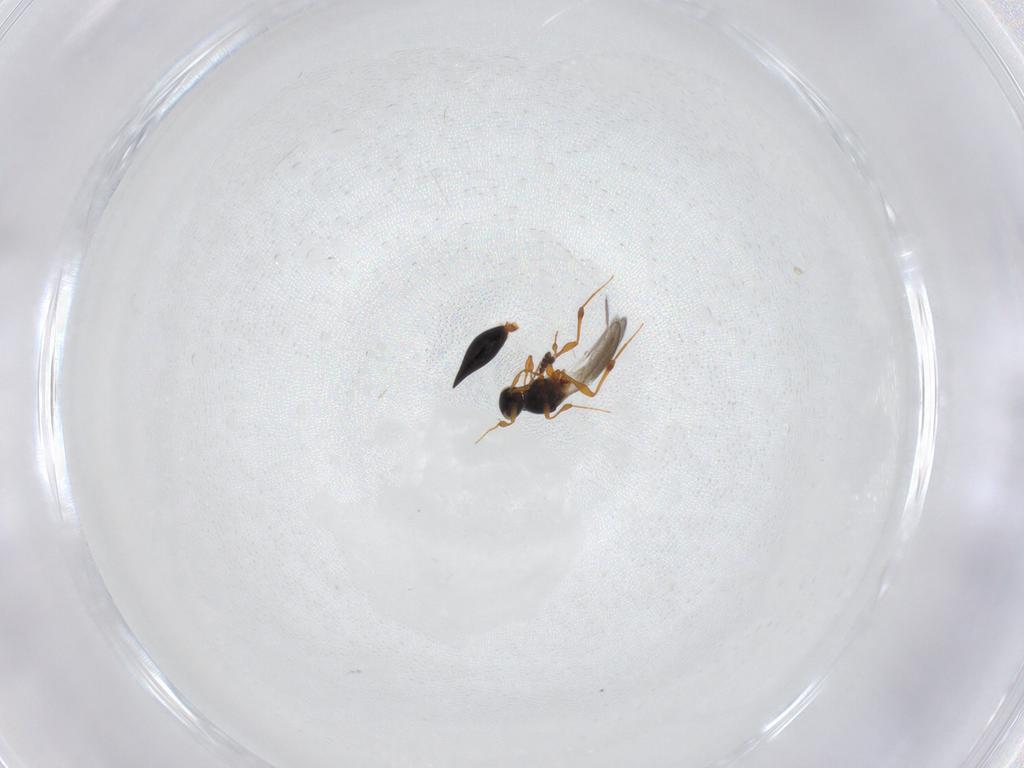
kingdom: Animalia
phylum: Arthropoda
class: Insecta
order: Hymenoptera
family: Platygastridae
